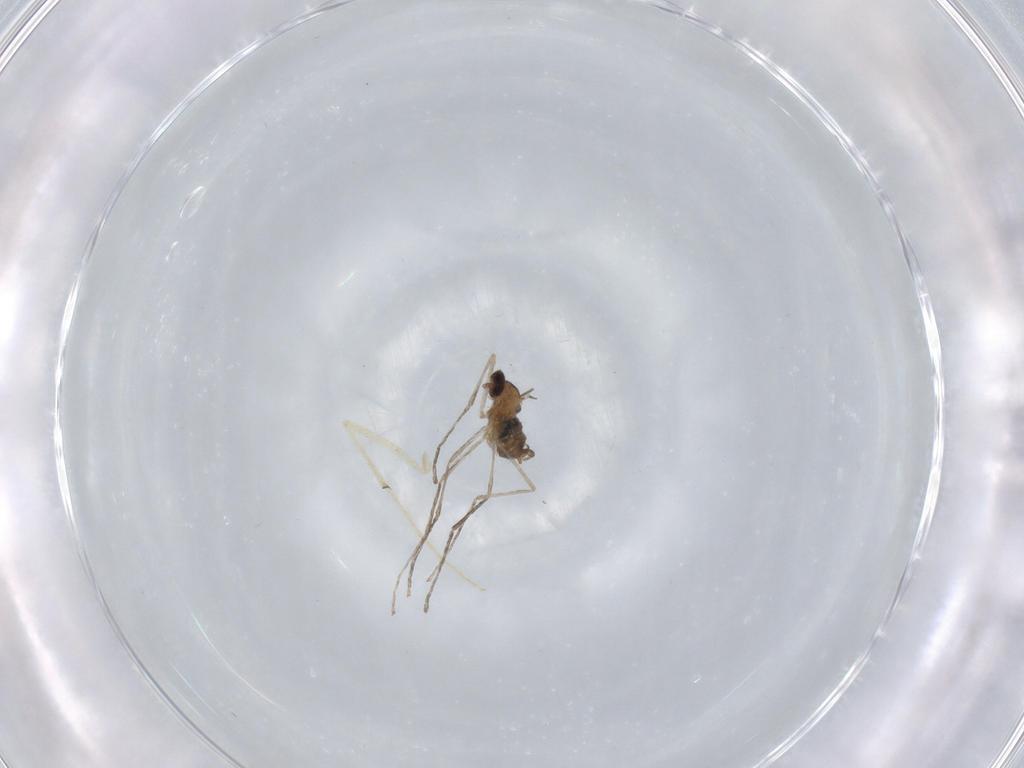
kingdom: Animalia
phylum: Arthropoda
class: Insecta
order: Diptera
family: Cecidomyiidae
